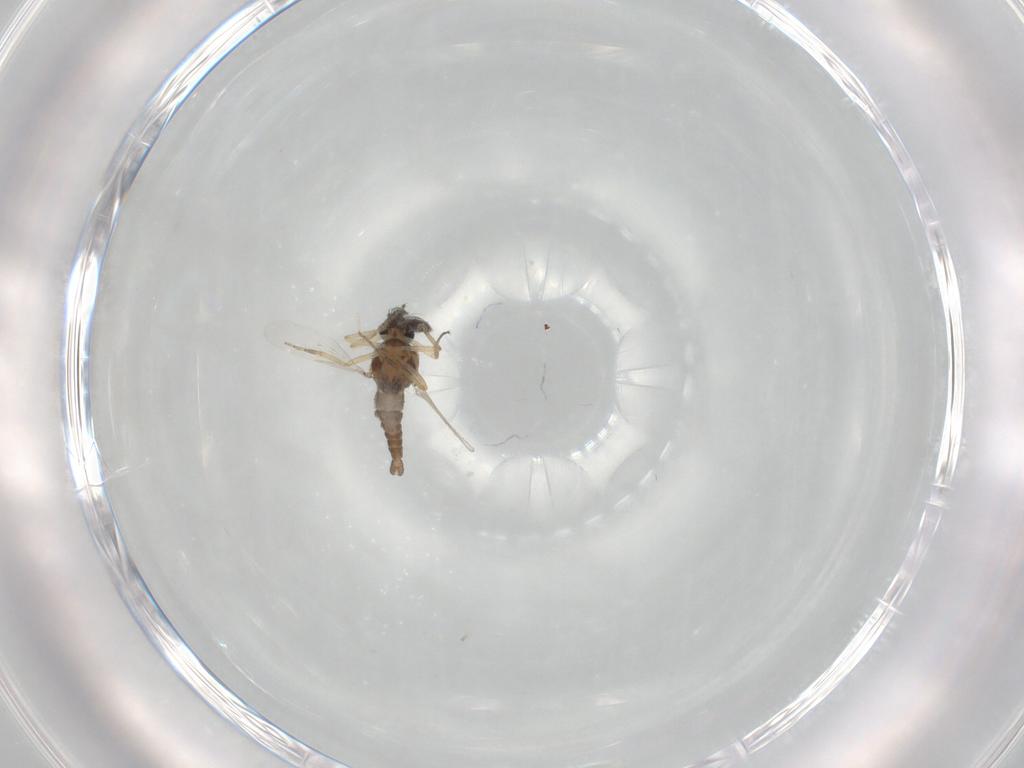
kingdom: Animalia
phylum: Arthropoda
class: Insecta
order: Diptera
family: Ceratopogonidae
